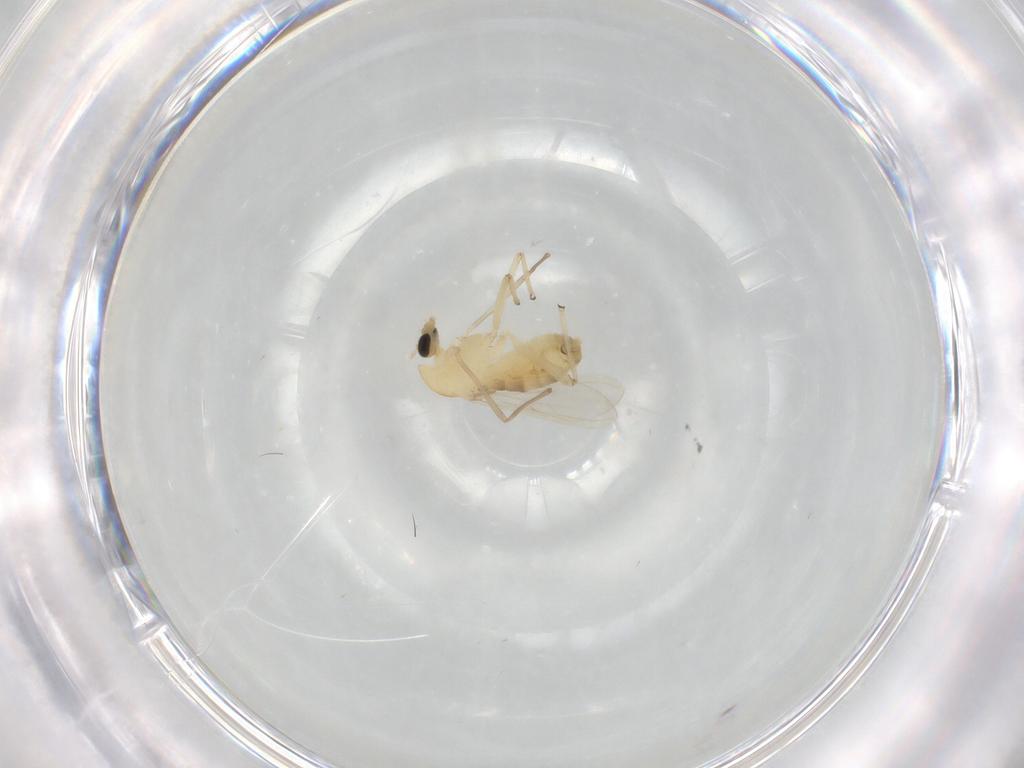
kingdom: Animalia
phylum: Arthropoda
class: Insecta
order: Diptera
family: Chironomidae
